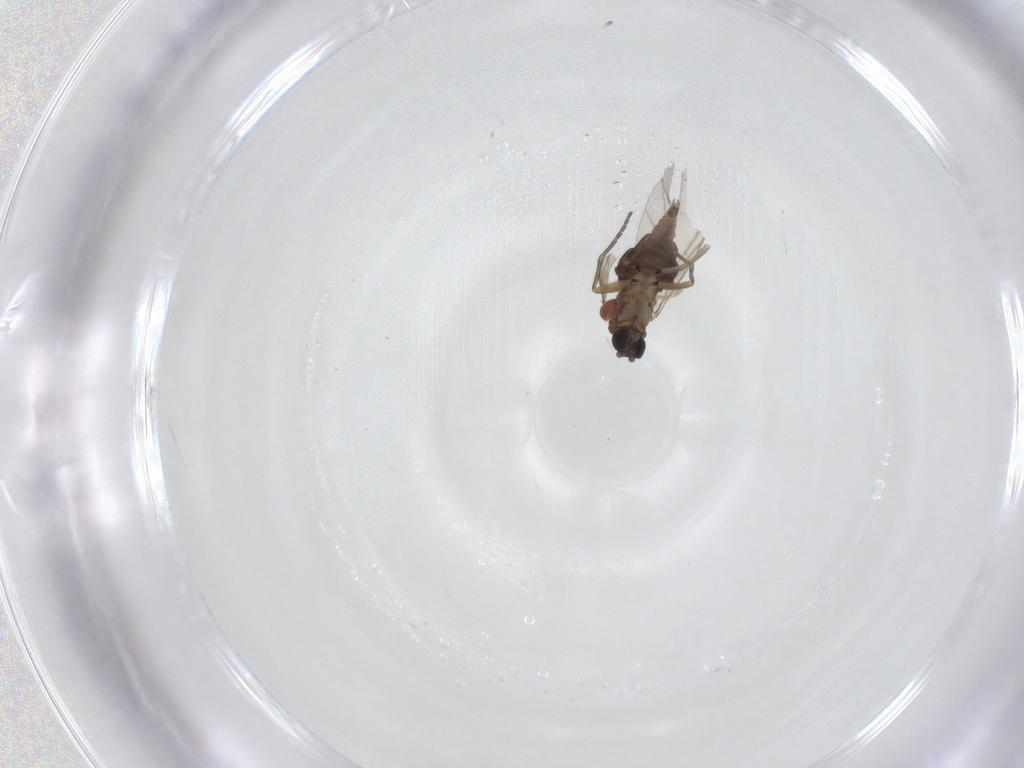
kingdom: Animalia
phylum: Arthropoda
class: Insecta
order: Diptera
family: Sciaridae
